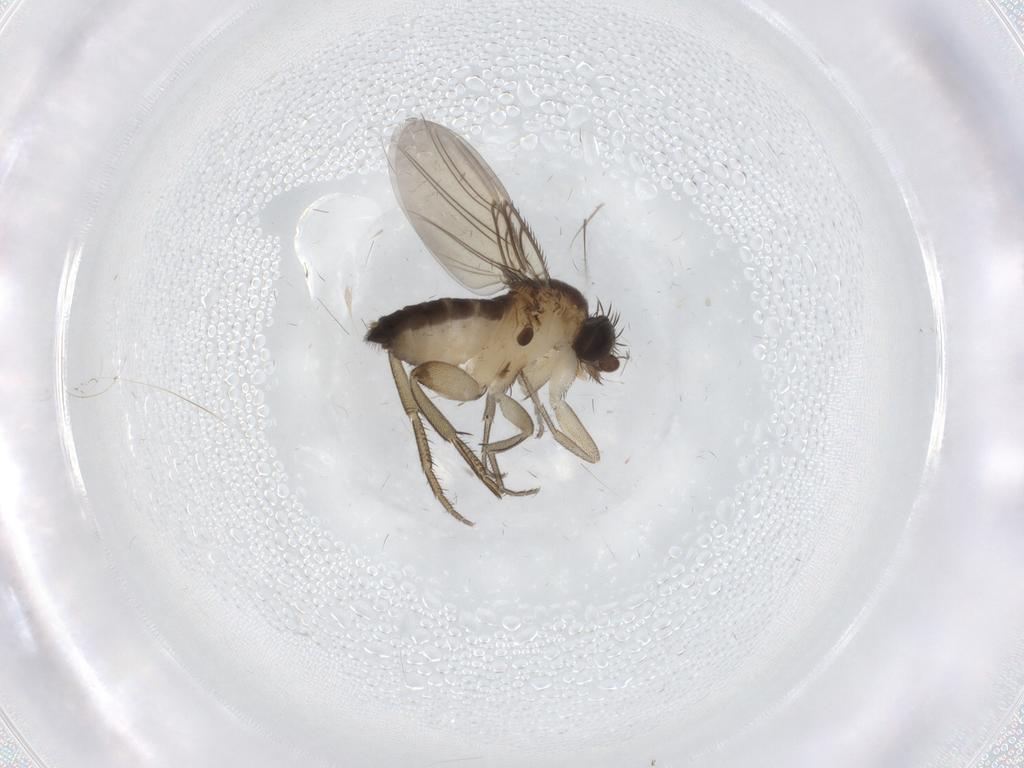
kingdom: Animalia
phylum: Arthropoda
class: Insecta
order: Diptera
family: Phoridae
